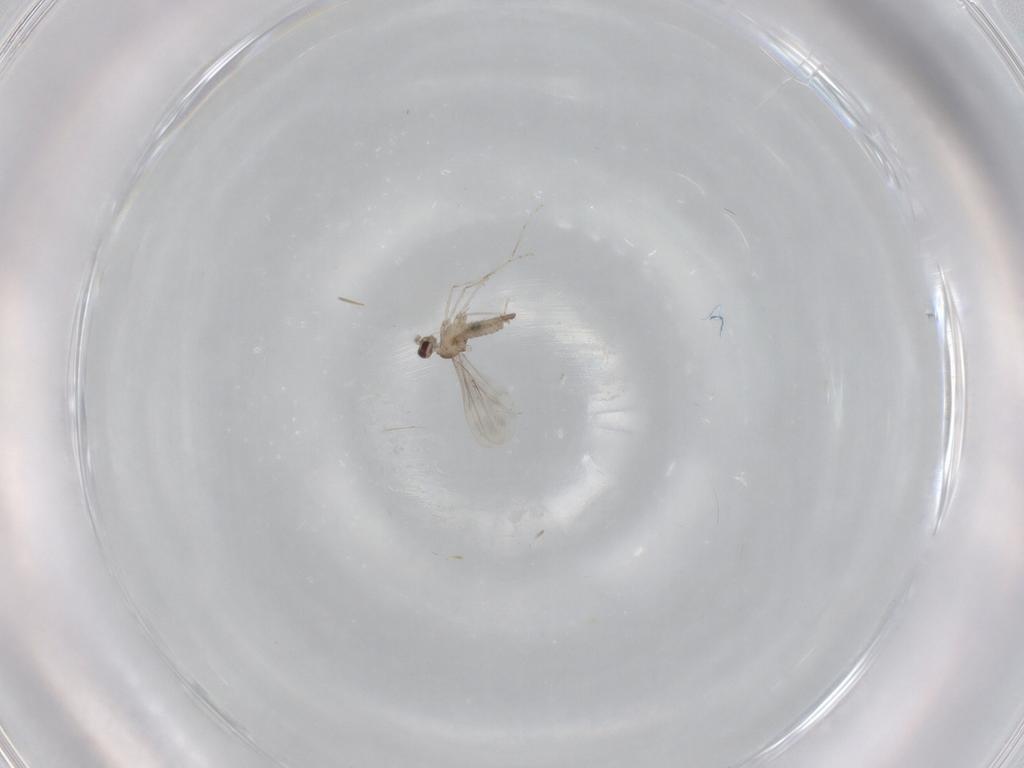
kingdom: Animalia
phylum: Arthropoda
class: Insecta
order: Diptera
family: Cecidomyiidae
